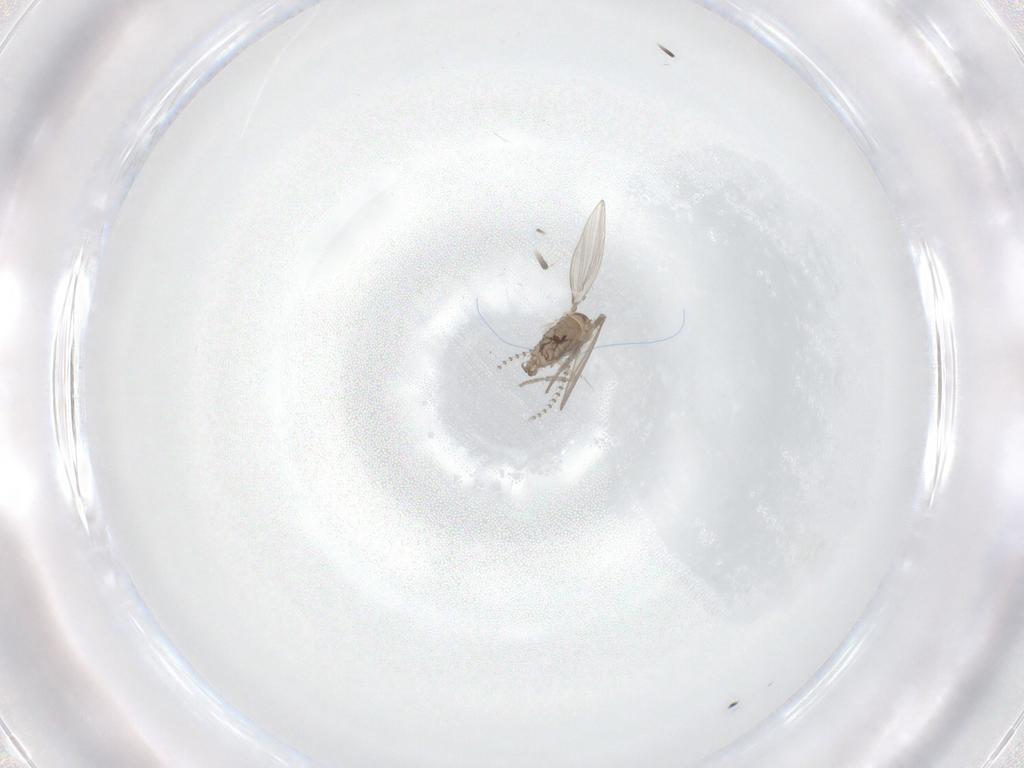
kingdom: Animalia
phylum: Arthropoda
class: Insecta
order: Diptera
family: Psychodidae
